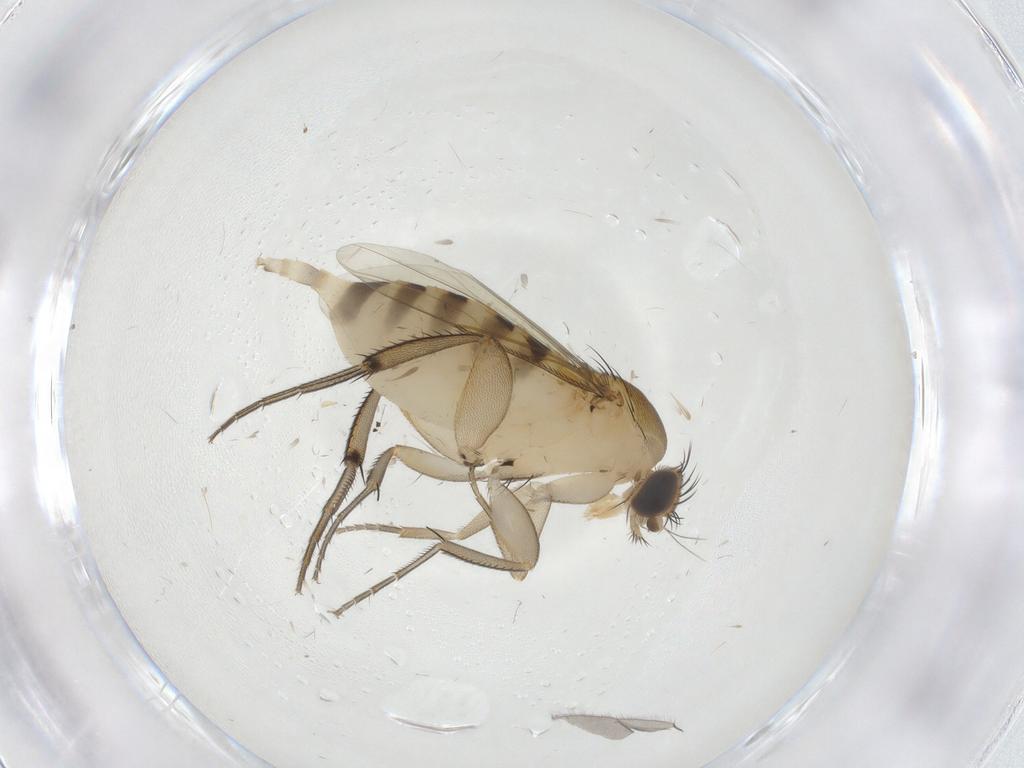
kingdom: Animalia
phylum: Arthropoda
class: Insecta
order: Diptera
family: Phoridae
